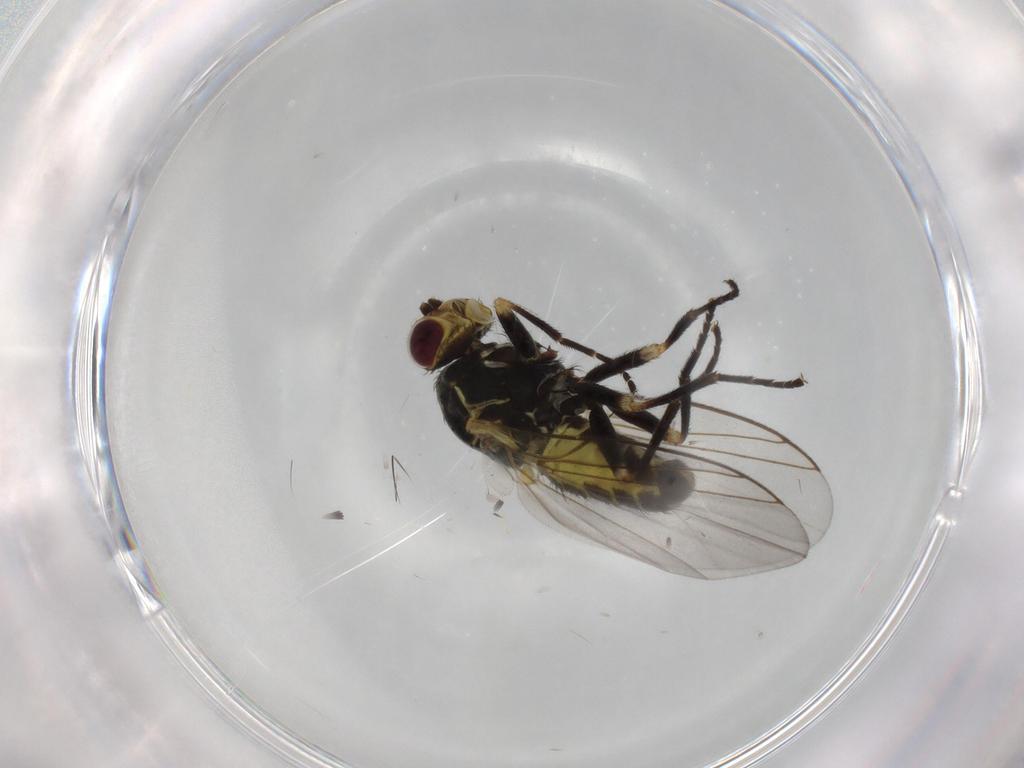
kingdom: Animalia
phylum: Arthropoda
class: Insecta
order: Diptera
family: Agromyzidae
